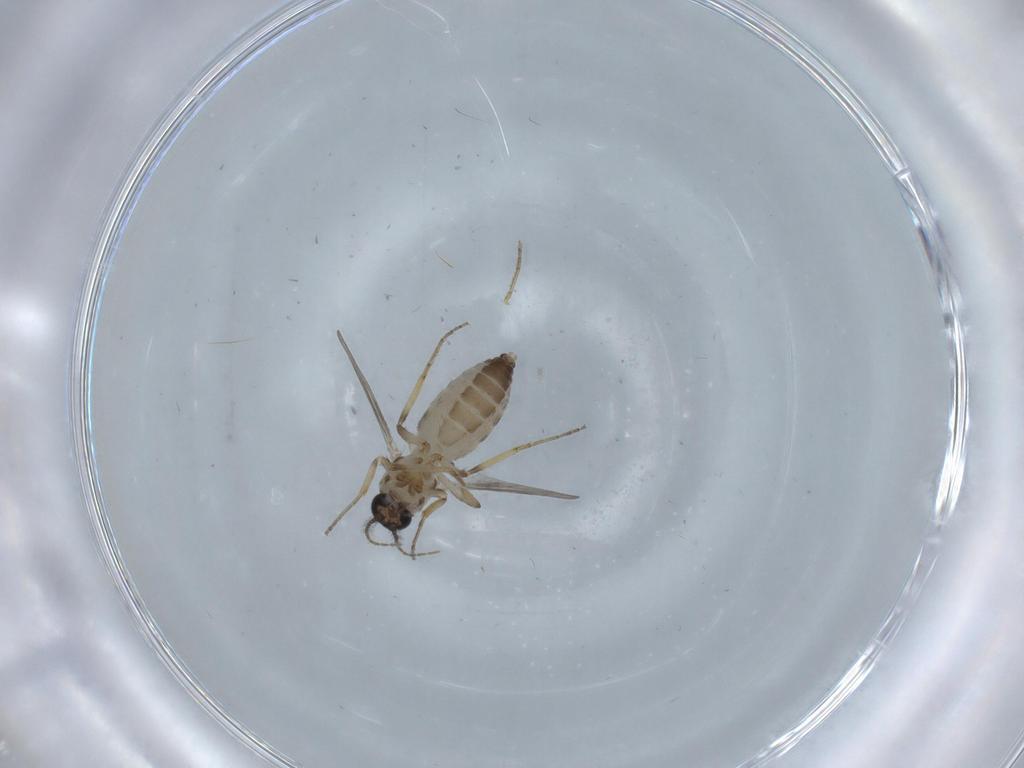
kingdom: Animalia
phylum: Arthropoda
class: Insecta
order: Diptera
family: Ceratopogonidae
